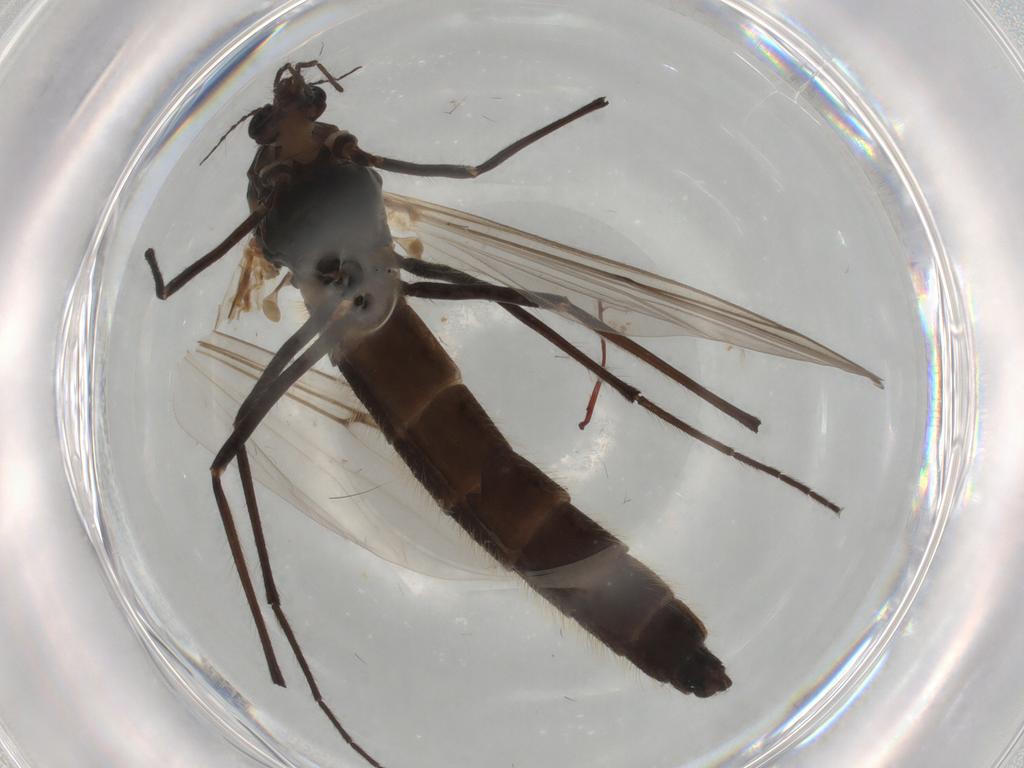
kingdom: Animalia
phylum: Arthropoda
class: Insecta
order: Diptera
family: Chironomidae
